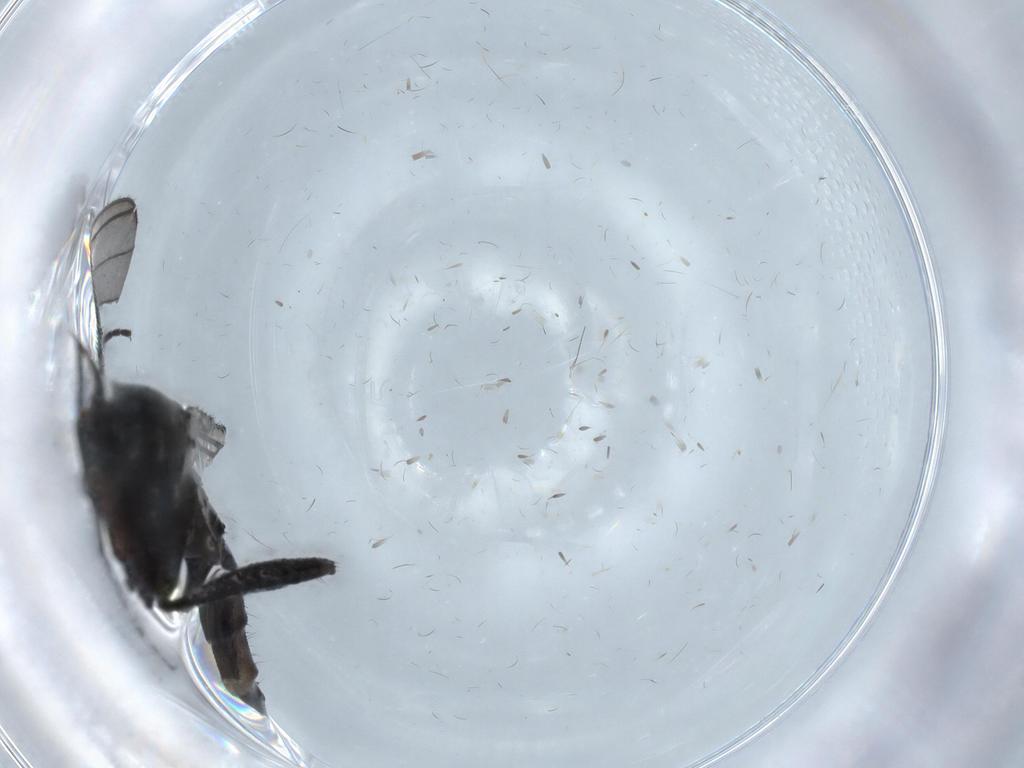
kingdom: Animalia
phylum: Arthropoda
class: Insecta
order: Diptera
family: Sciaridae
